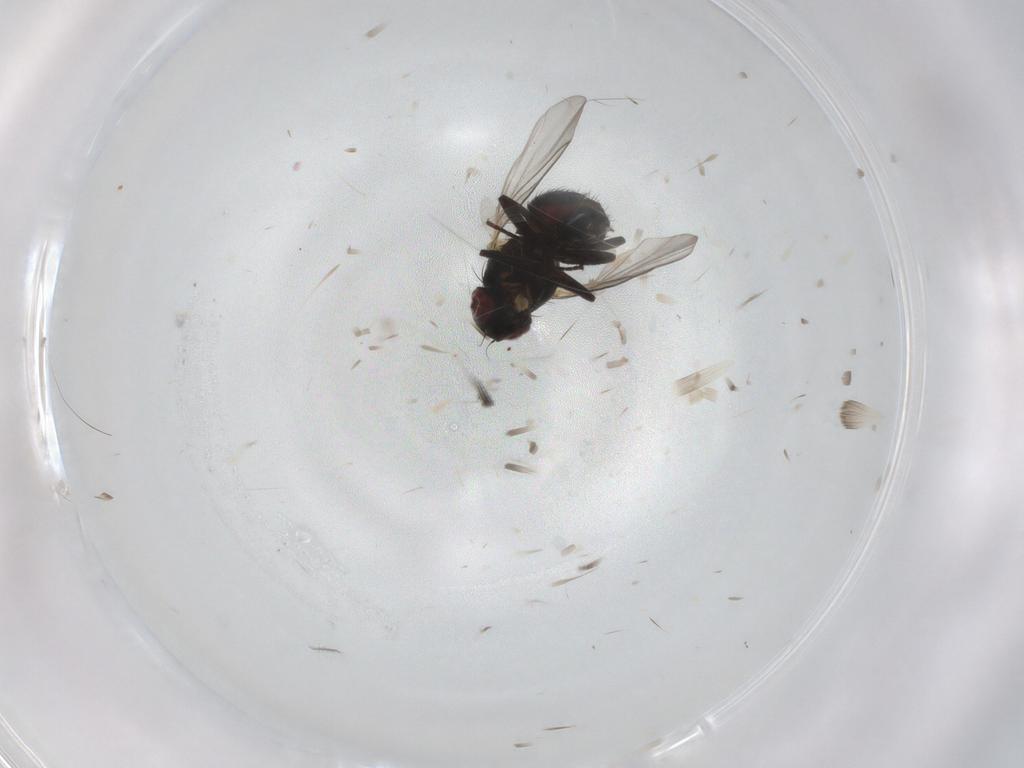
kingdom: Animalia
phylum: Arthropoda
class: Insecta
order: Diptera
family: Agromyzidae
